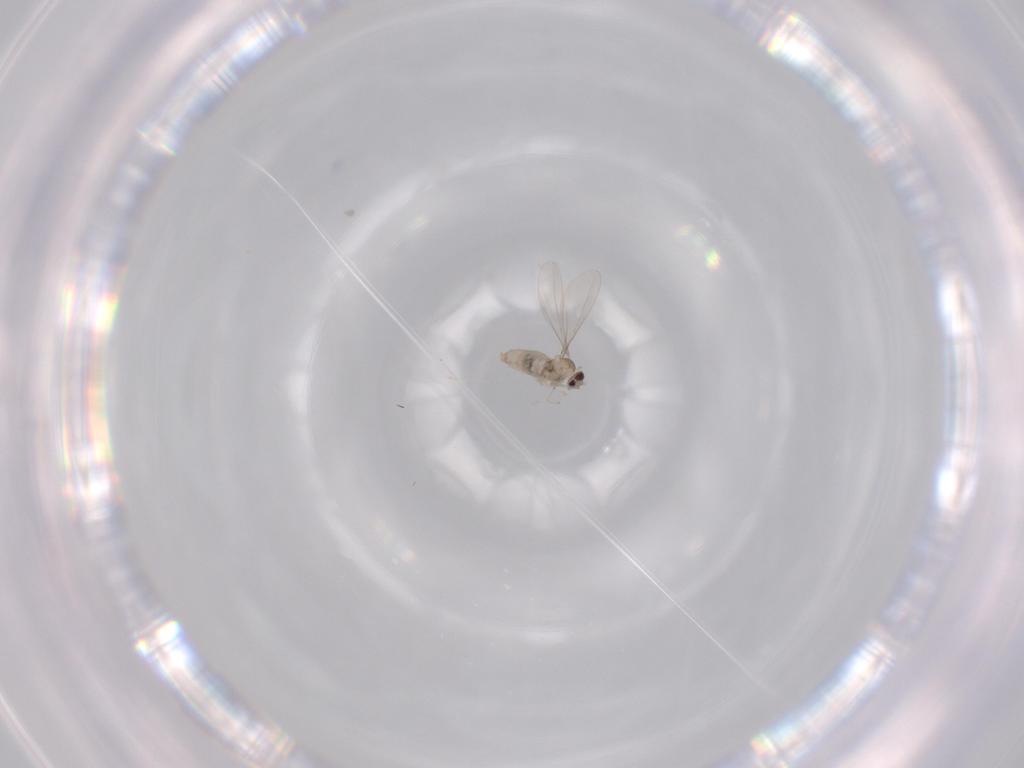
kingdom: Animalia
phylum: Arthropoda
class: Insecta
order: Diptera
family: Cecidomyiidae
